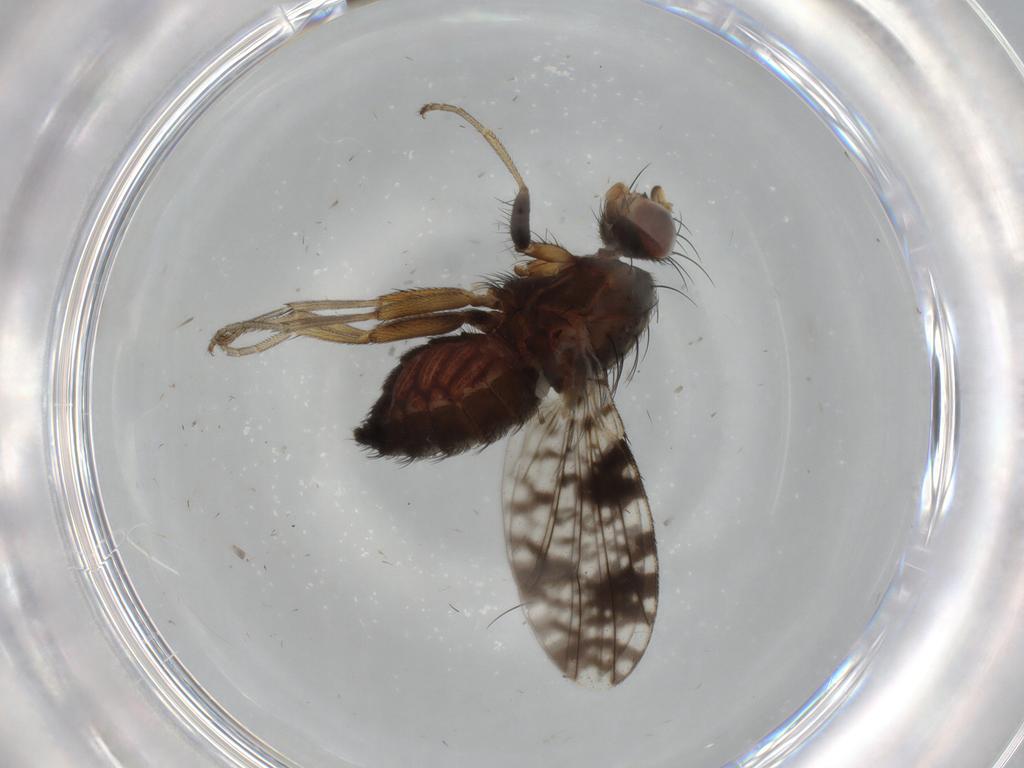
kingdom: Animalia
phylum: Arthropoda
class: Insecta
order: Diptera
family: Tephritidae
